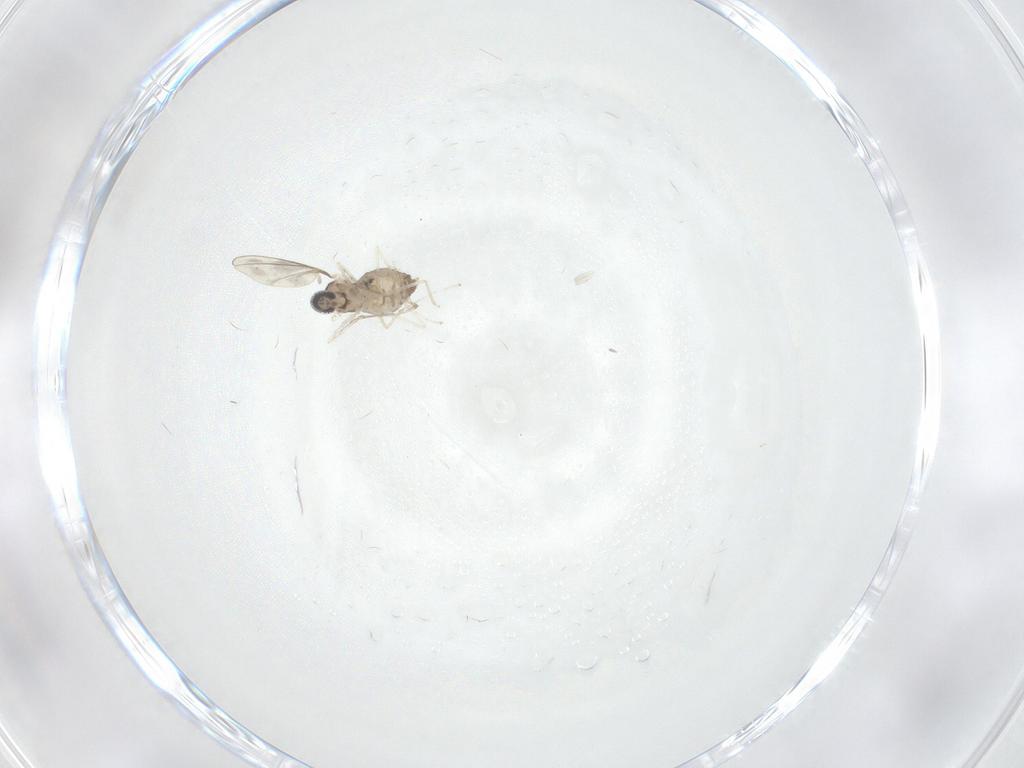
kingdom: Animalia
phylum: Arthropoda
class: Insecta
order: Diptera
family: Cecidomyiidae
